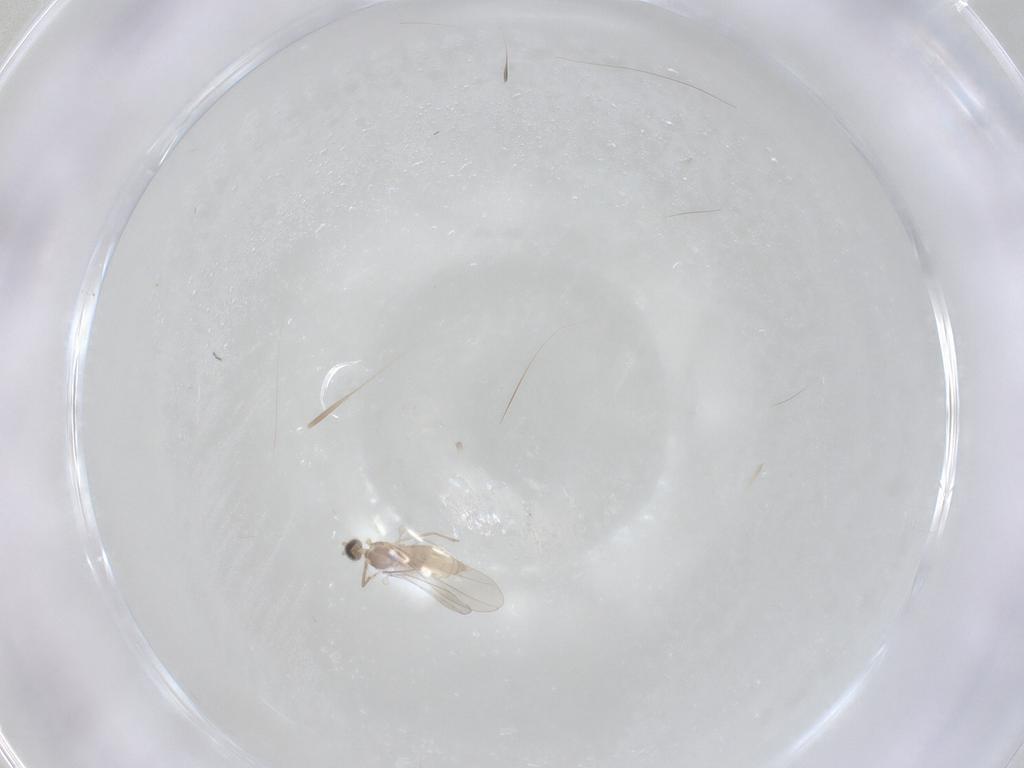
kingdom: Animalia
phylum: Arthropoda
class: Insecta
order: Diptera
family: Cecidomyiidae
